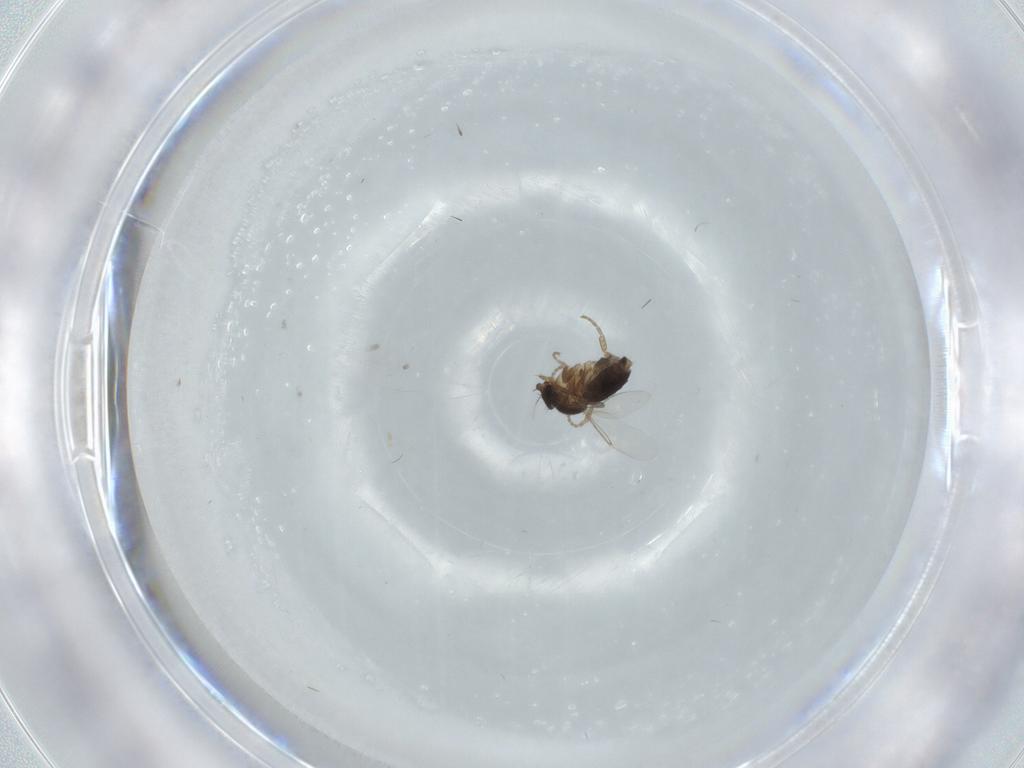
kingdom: Animalia
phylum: Arthropoda
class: Insecta
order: Diptera
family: Phoridae
